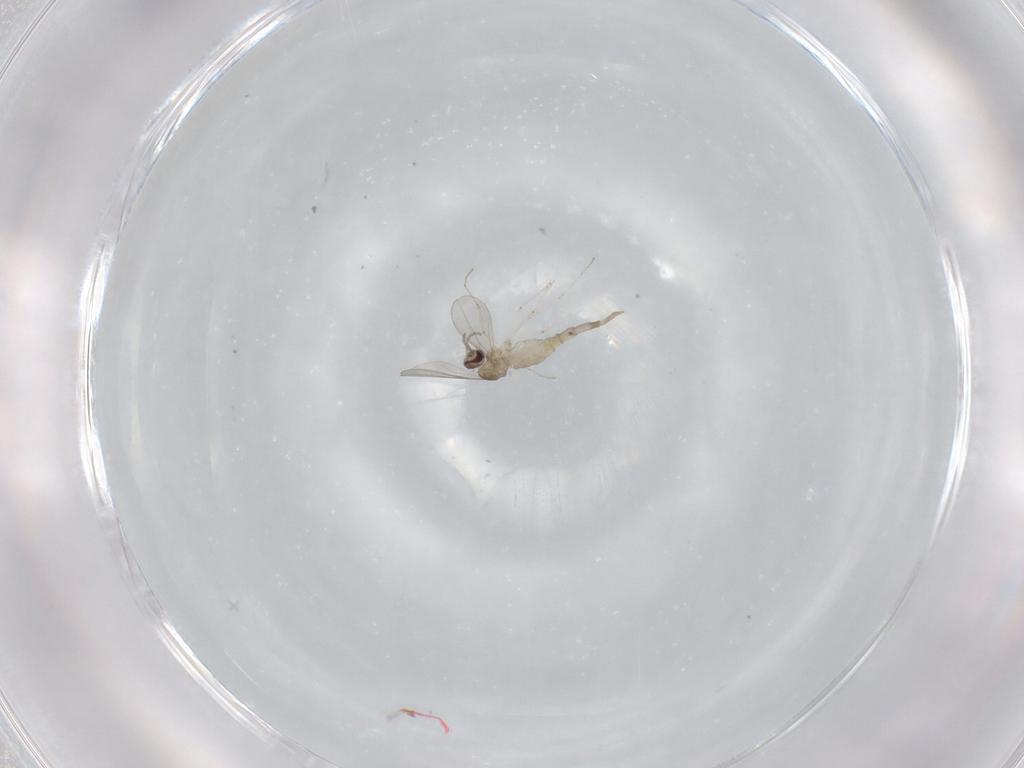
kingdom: Animalia
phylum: Arthropoda
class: Insecta
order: Diptera
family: Cecidomyiidae
